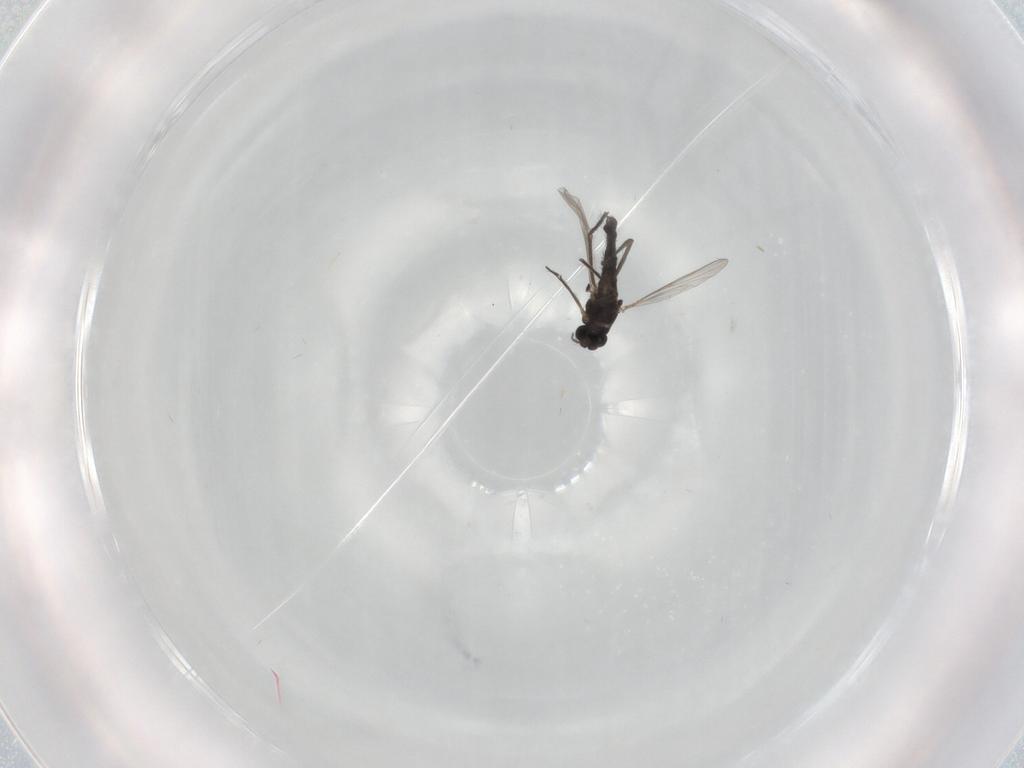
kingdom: Animalia
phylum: Arthropoda
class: Insecta
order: Diptera
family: Chironomidae
